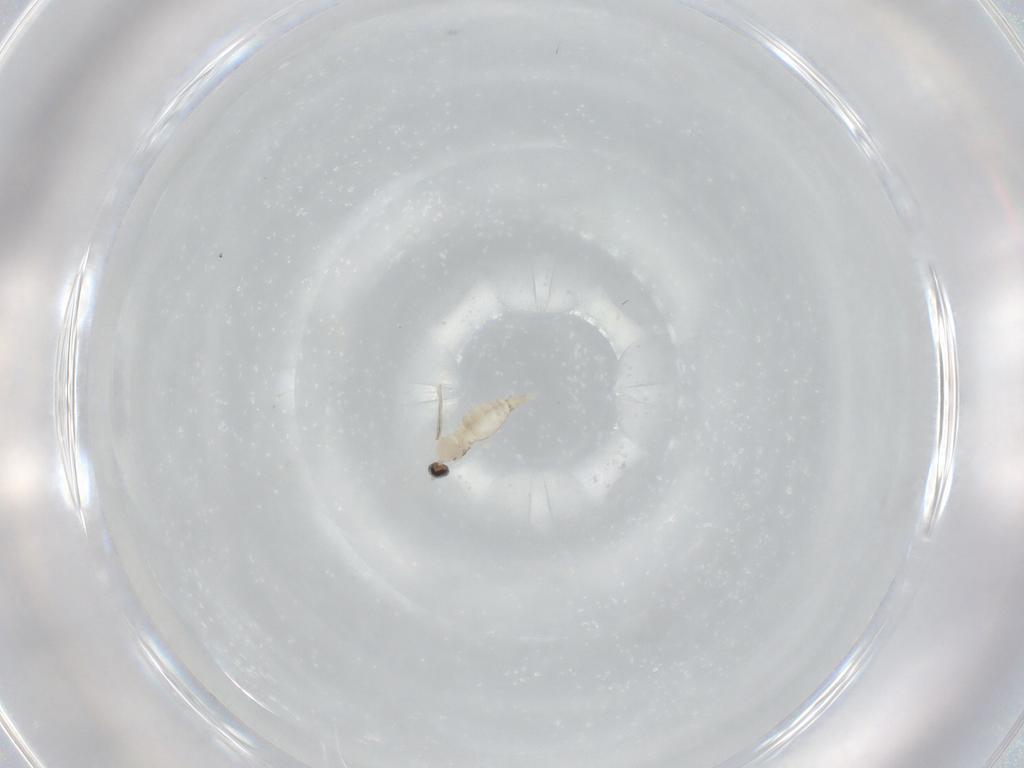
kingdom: Animalia
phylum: Arthropoda
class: Insecta
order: Diptera
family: Cecidomyiidae
